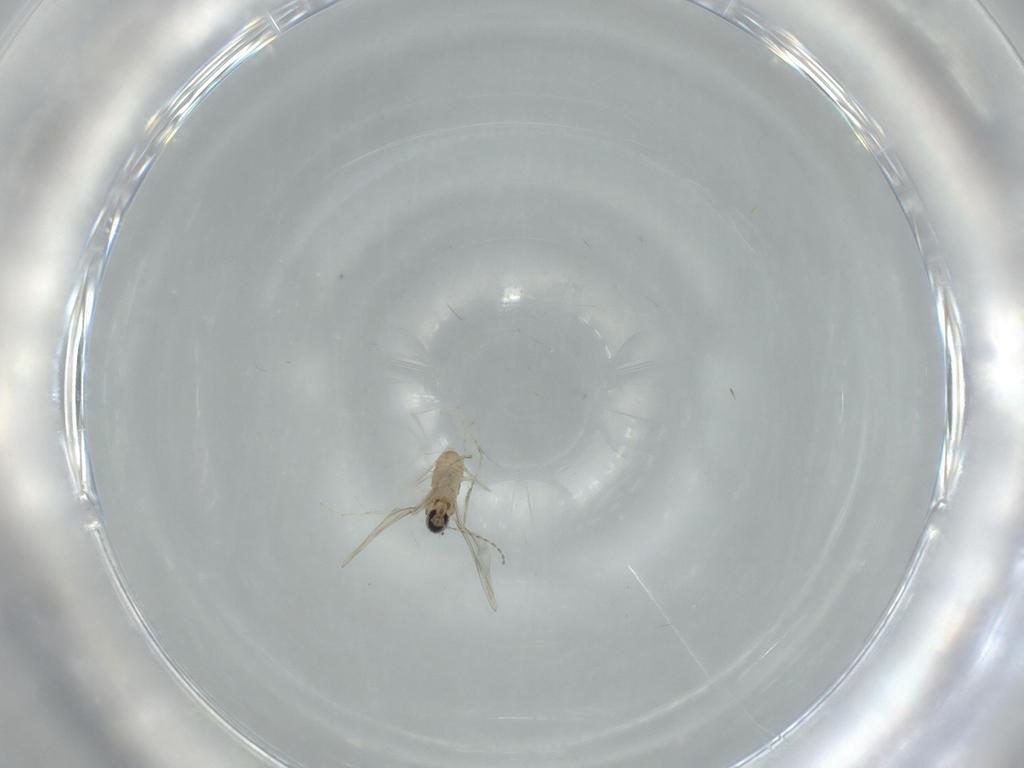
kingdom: Animalia
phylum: Arthropoda
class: Insecta
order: Diptera
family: Cecidomyiidae
